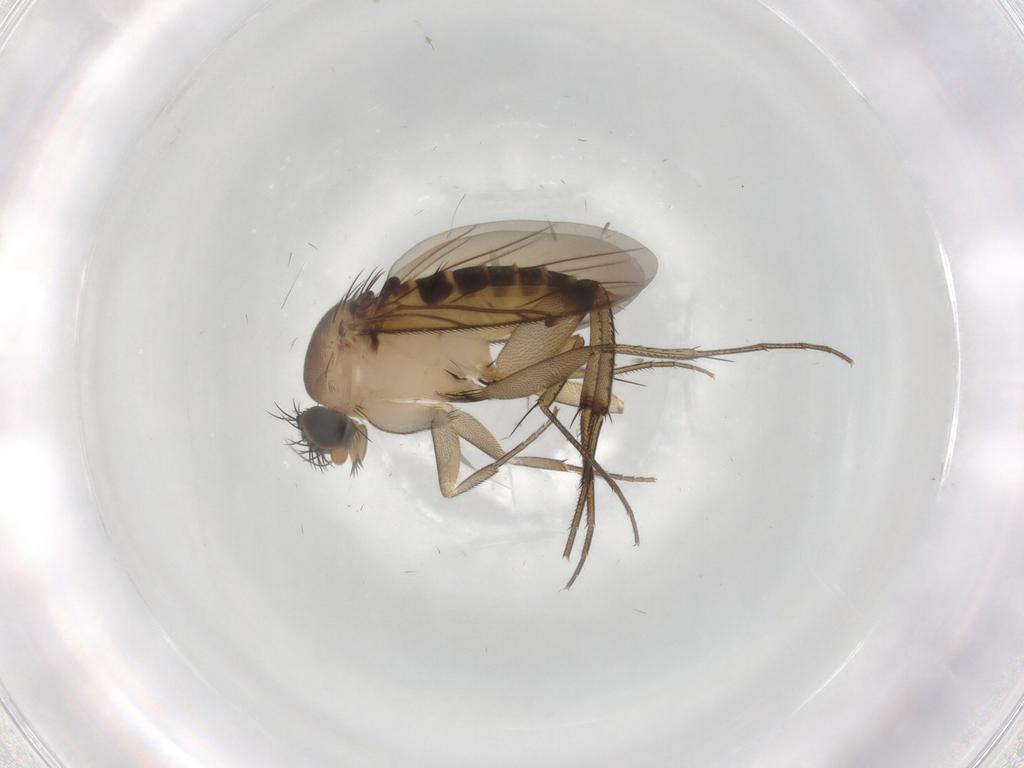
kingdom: Animalia
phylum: Arthropoda
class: Insecta
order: Diptera
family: Phoridae
